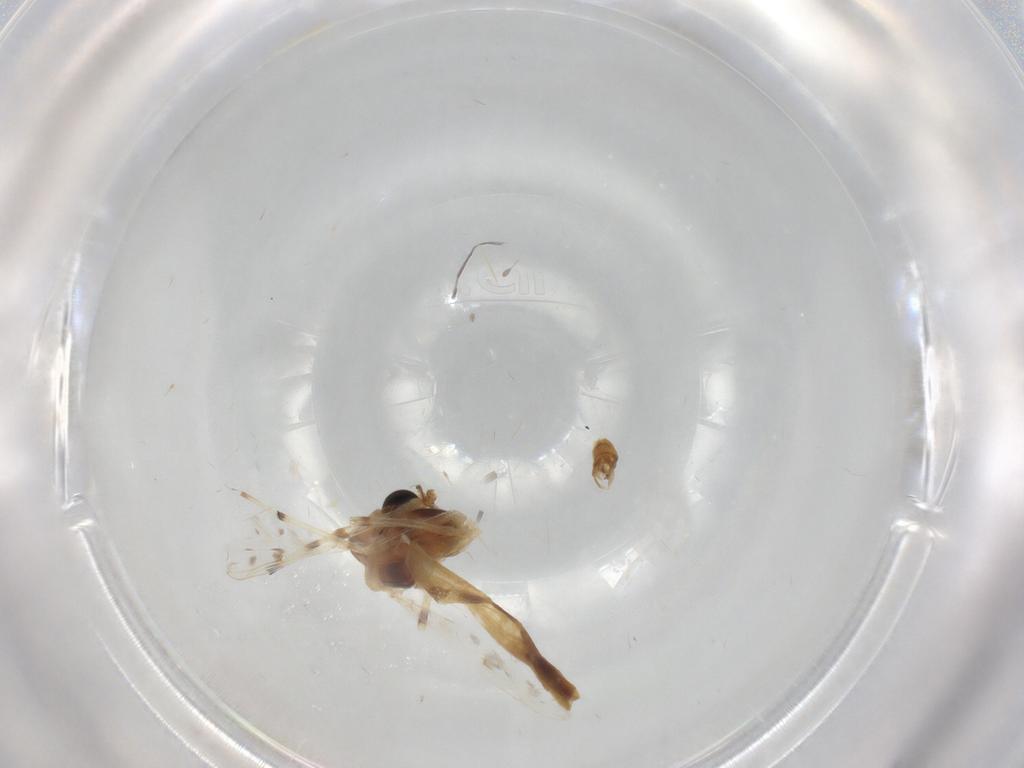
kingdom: Animalia
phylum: Arthropoda
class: Insecta
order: Diptera
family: Chironomidae
